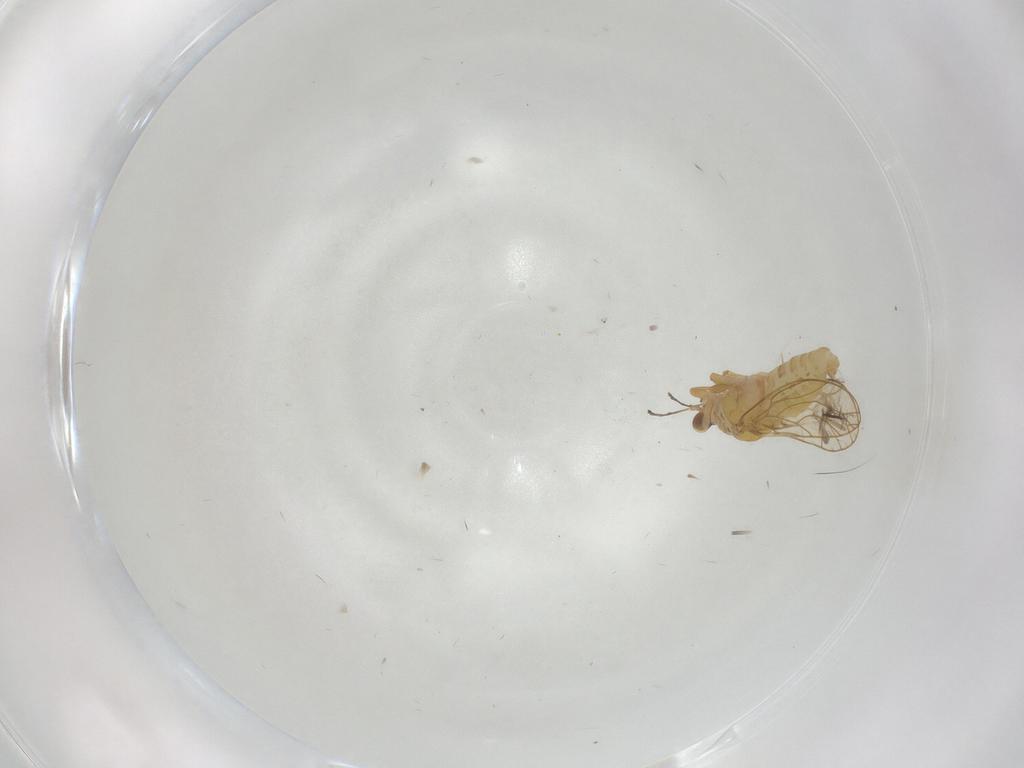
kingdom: Animalia
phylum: Arthropoda
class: Insecta
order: Hemiptera
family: Psylloidea_incertae_sedis
